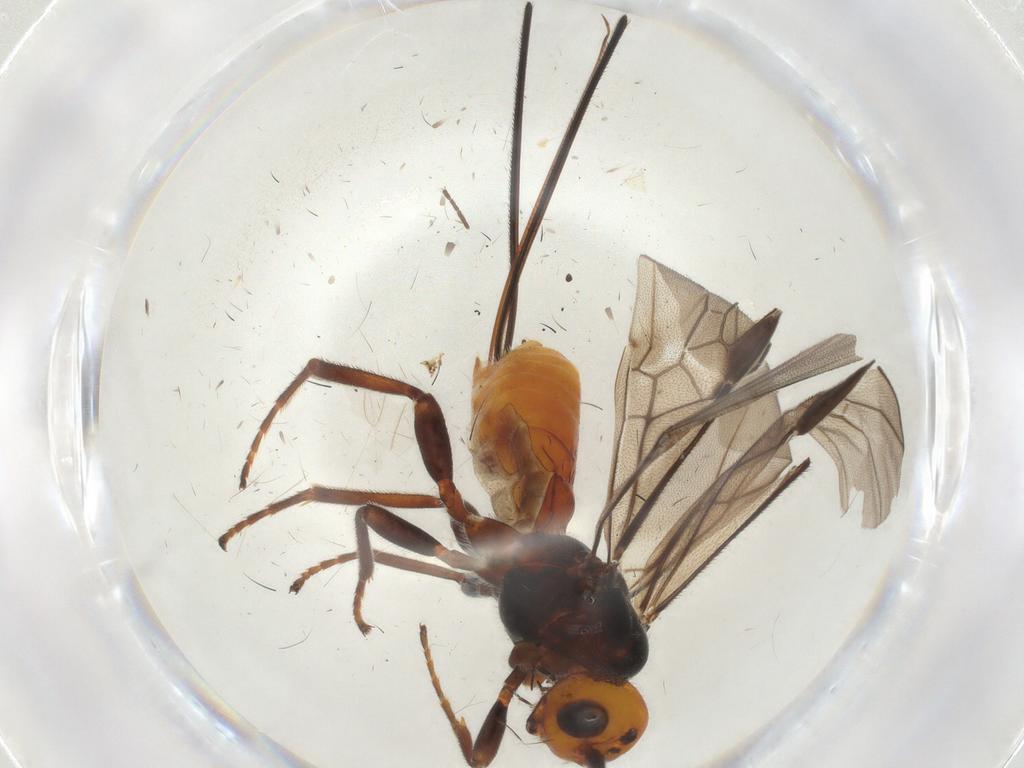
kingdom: Animalia
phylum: Arthropoda
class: Insecta
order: Hymenoptera
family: Braconidae
